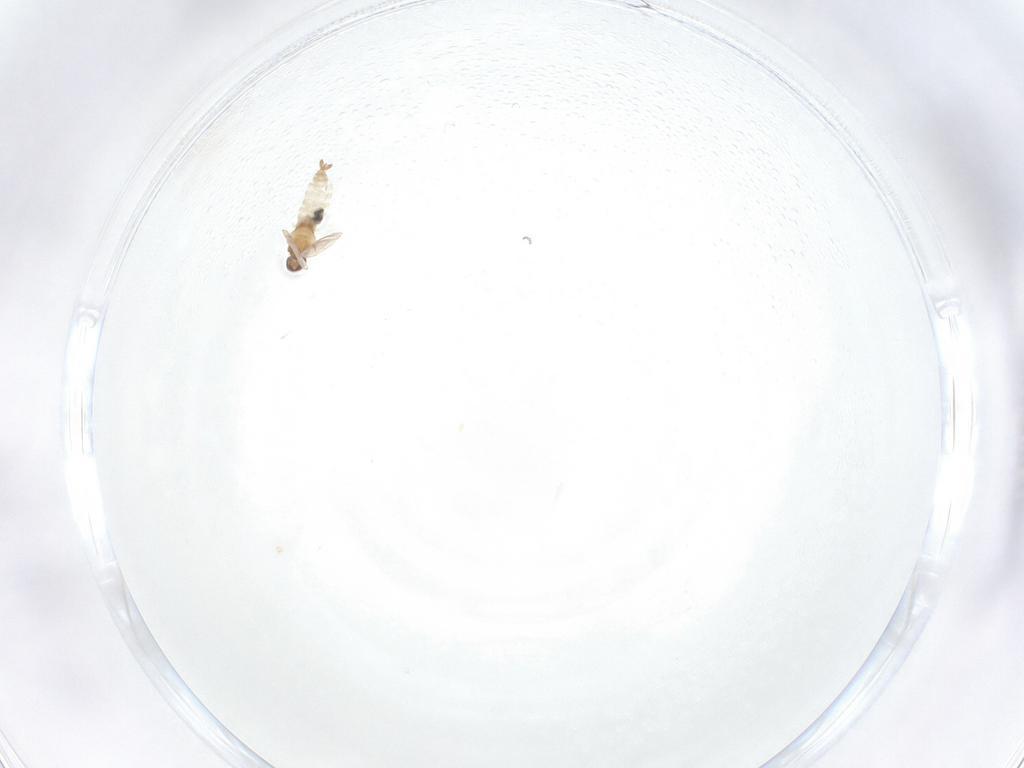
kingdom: Animalia
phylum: Arthropoda
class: Insecta
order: Diptera
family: Cecidomyiidae
